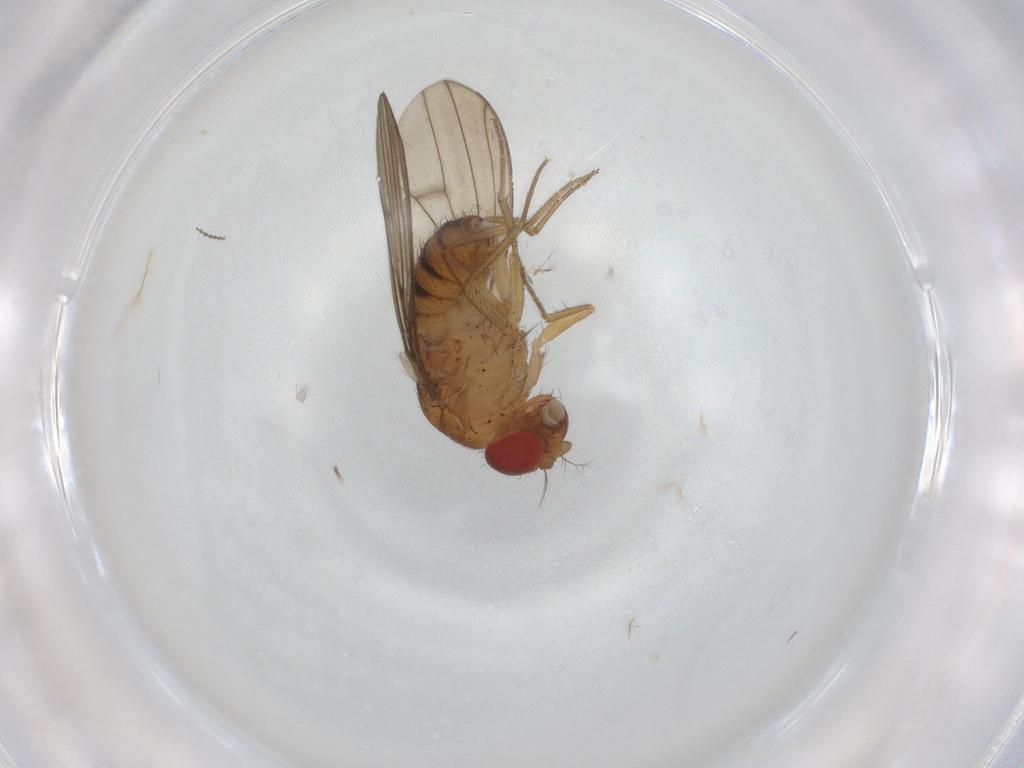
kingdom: Animalia
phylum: Arthropoda
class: Insecta
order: Diptera
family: Drosophilidae
